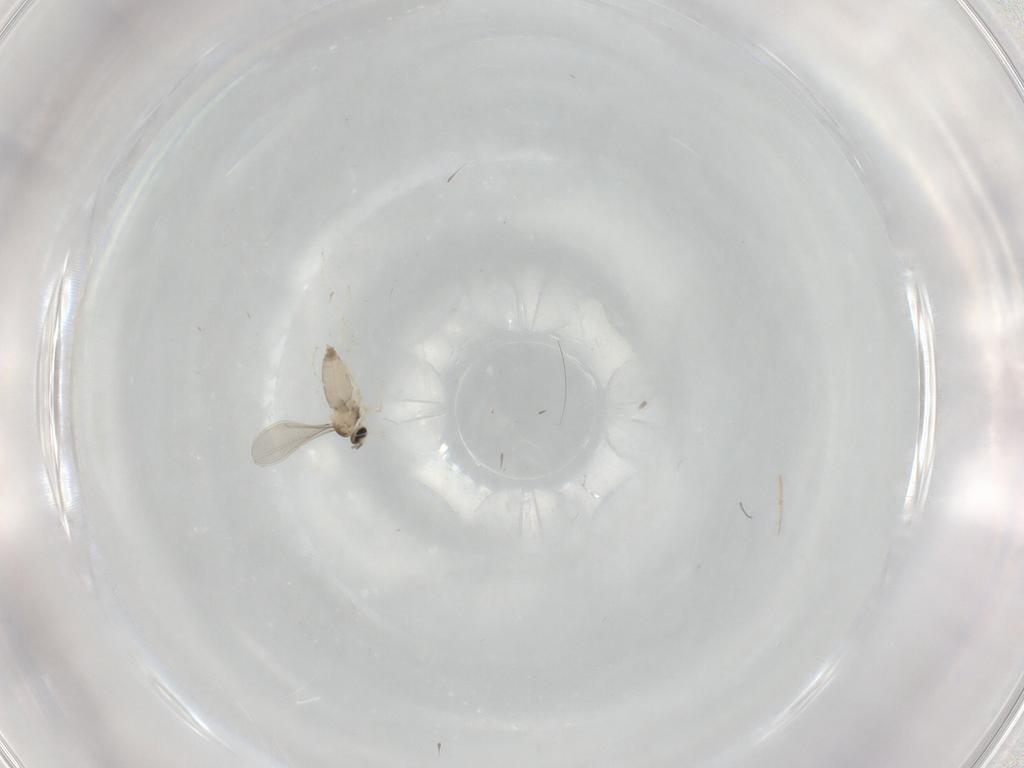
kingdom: Animalia
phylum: Arthropoda
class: Insecta
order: Diptera
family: Cecidomyiidae
